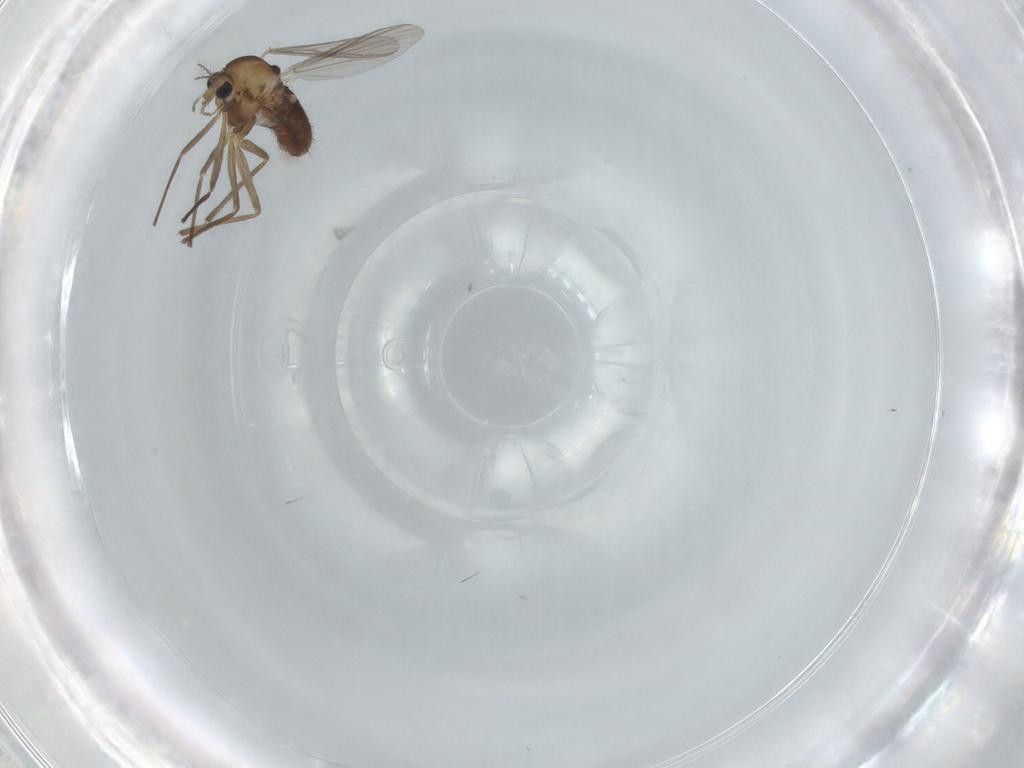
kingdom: Animalia
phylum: Arthropoda
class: Insecta
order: Diptera
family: Chironomidae
